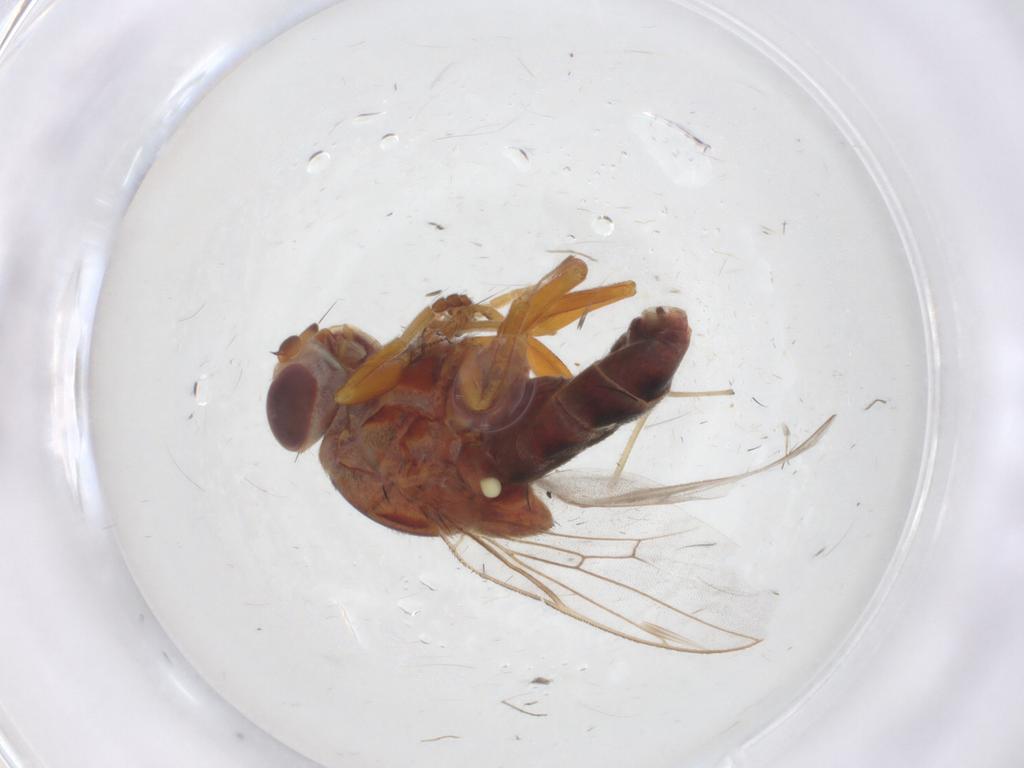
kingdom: Animalia
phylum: Arthropoda
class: Insecta
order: Diptera
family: Chloropidae
